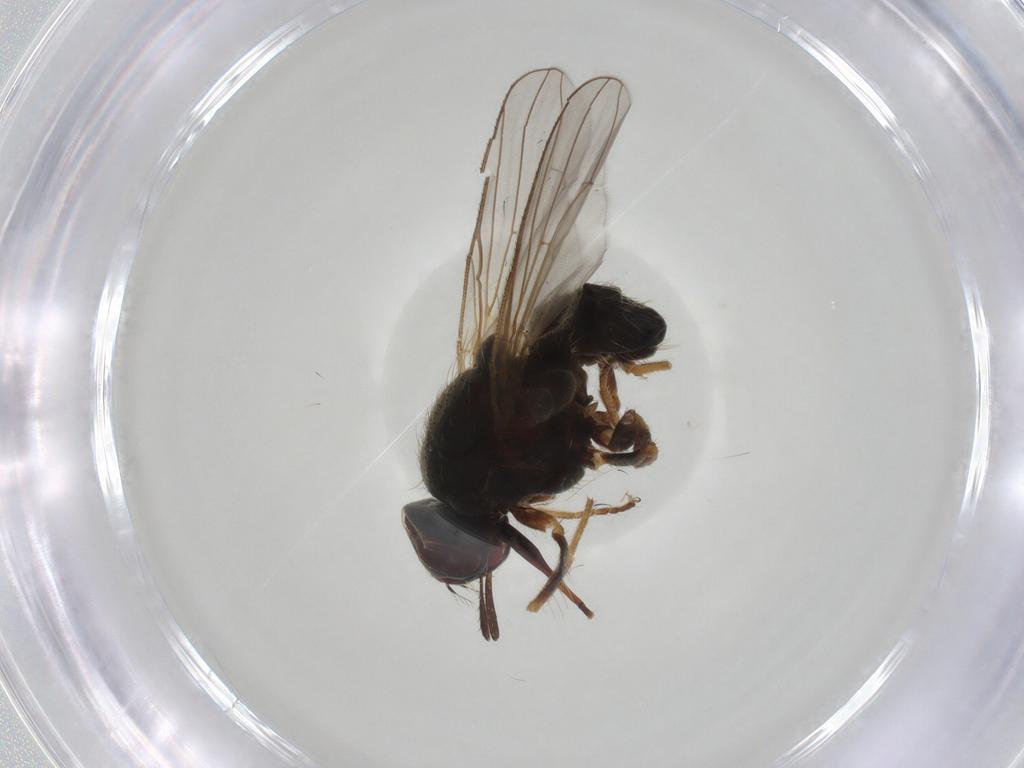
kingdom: Animalia
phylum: Arthropoda
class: Insecta
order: Diptera
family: Muscidae
